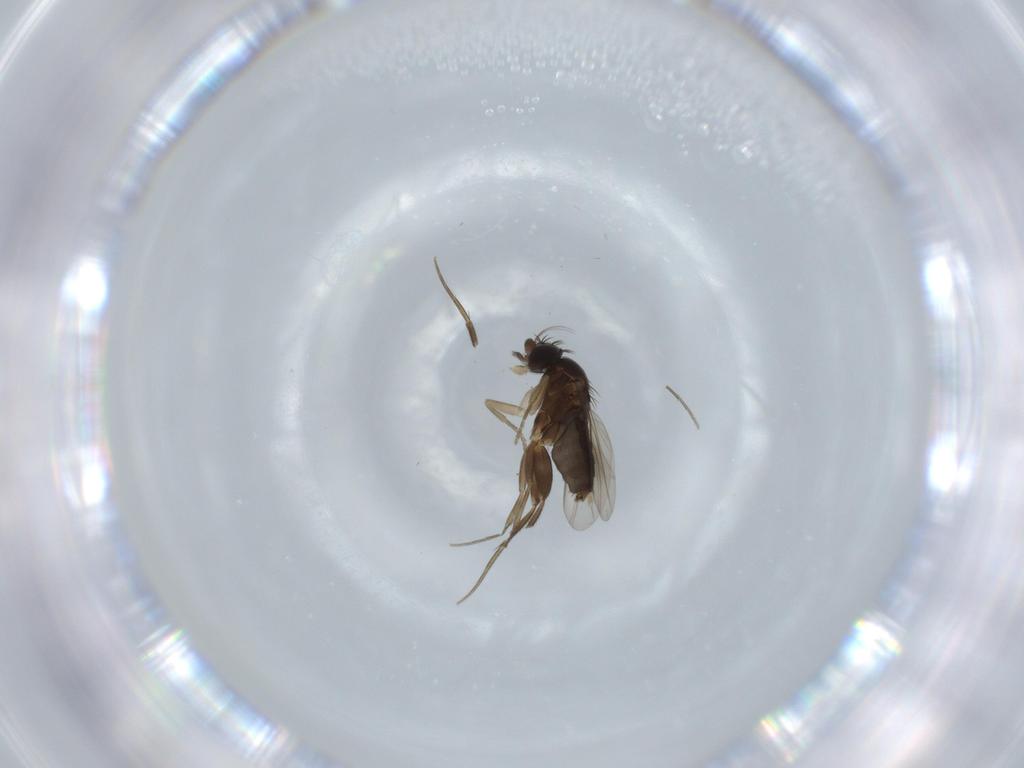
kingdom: Animalia
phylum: Arthropoda
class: Insecta
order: Diptera
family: Phoridae
